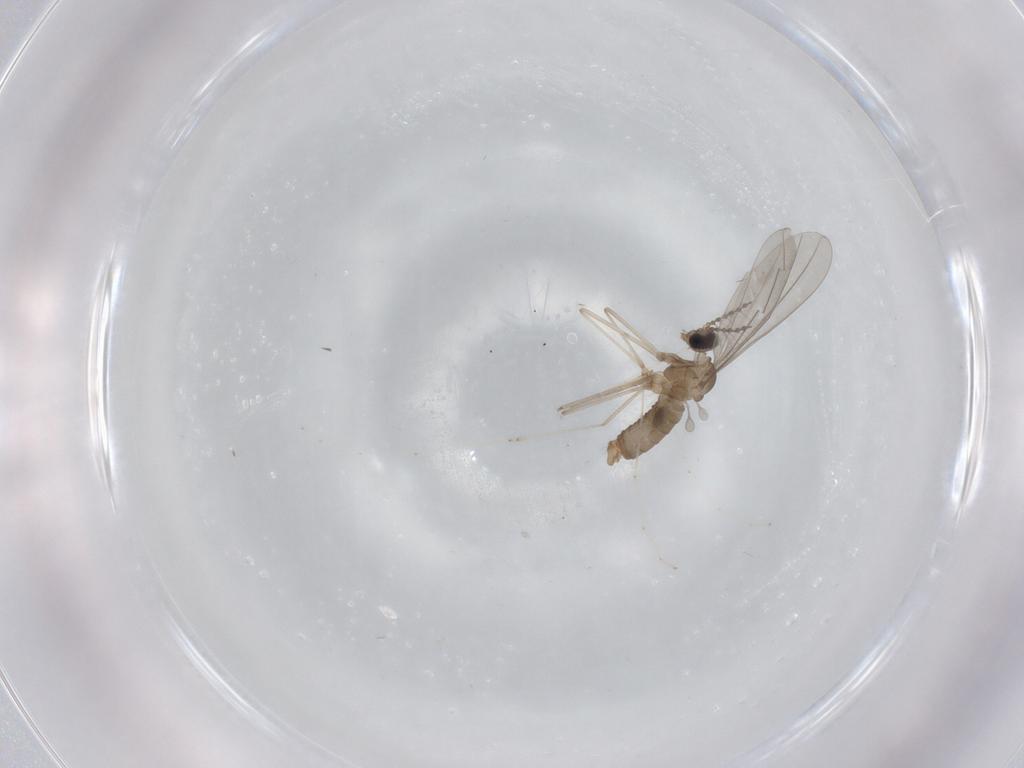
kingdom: Animalia
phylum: Arthropoda
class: Insecta
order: Diptera
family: Cecidomyiidae
